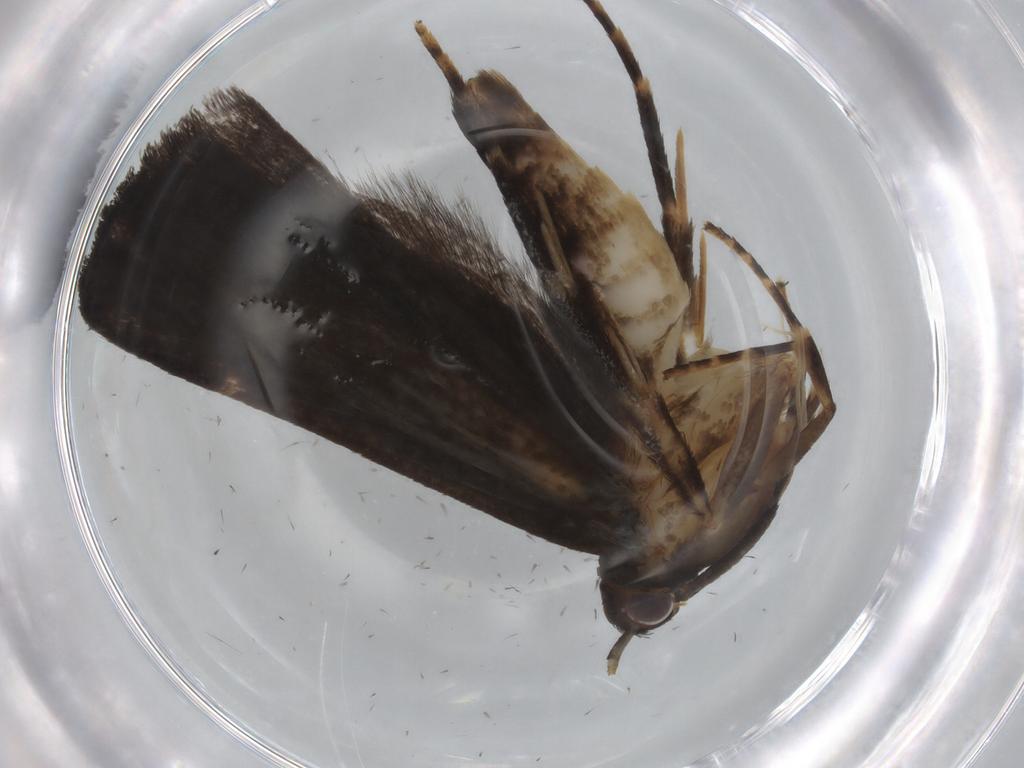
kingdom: Animalia
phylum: Arthropoda
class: Insecta
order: Lepidoptera
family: Gelechiidae
